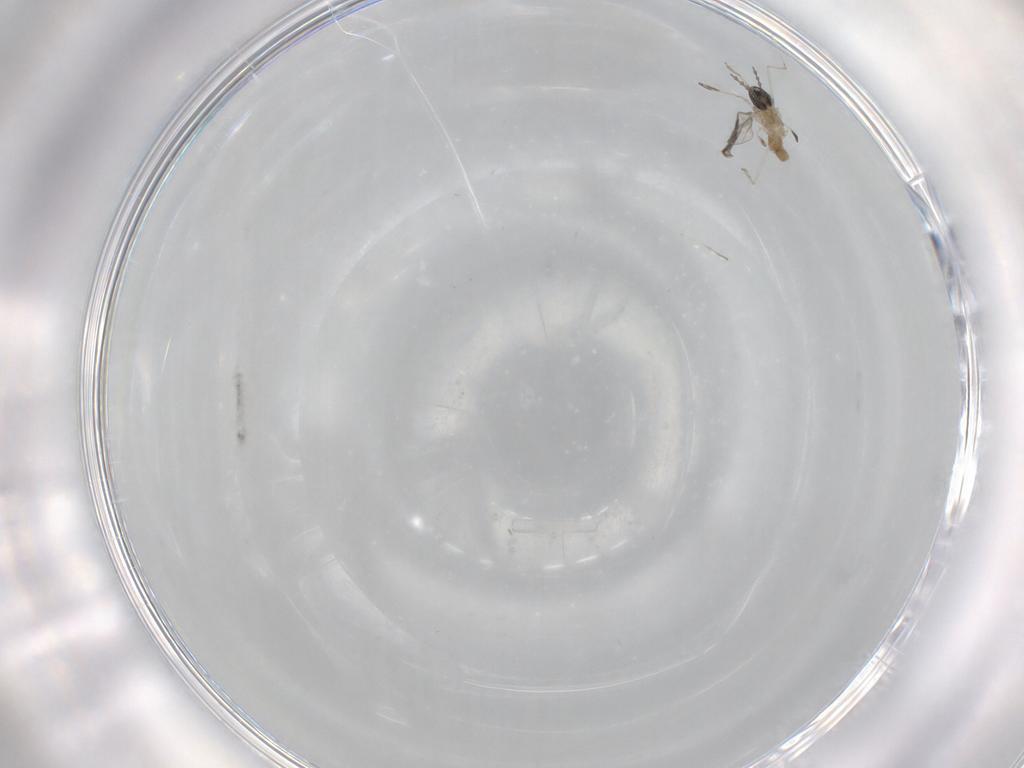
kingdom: Animalia
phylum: Arthropoda
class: Insecta
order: Diptera
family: Cecidomyiidae
